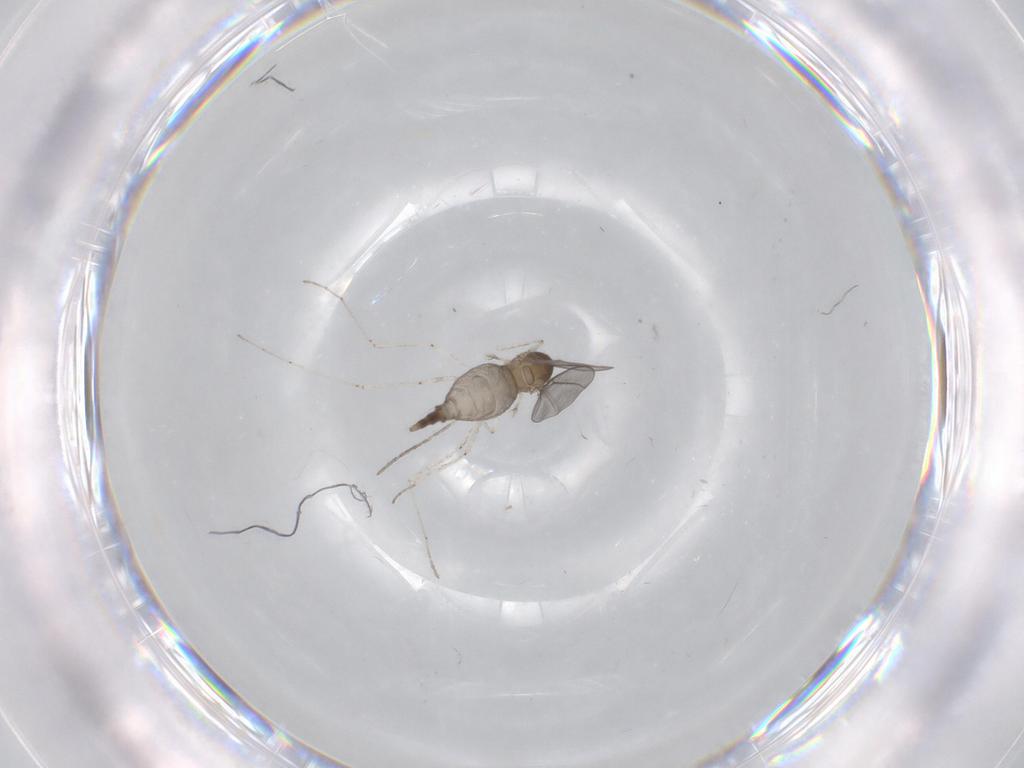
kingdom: Animalia
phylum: Arthropoda
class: Insecta
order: Diptera
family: Cecidomyiidae
